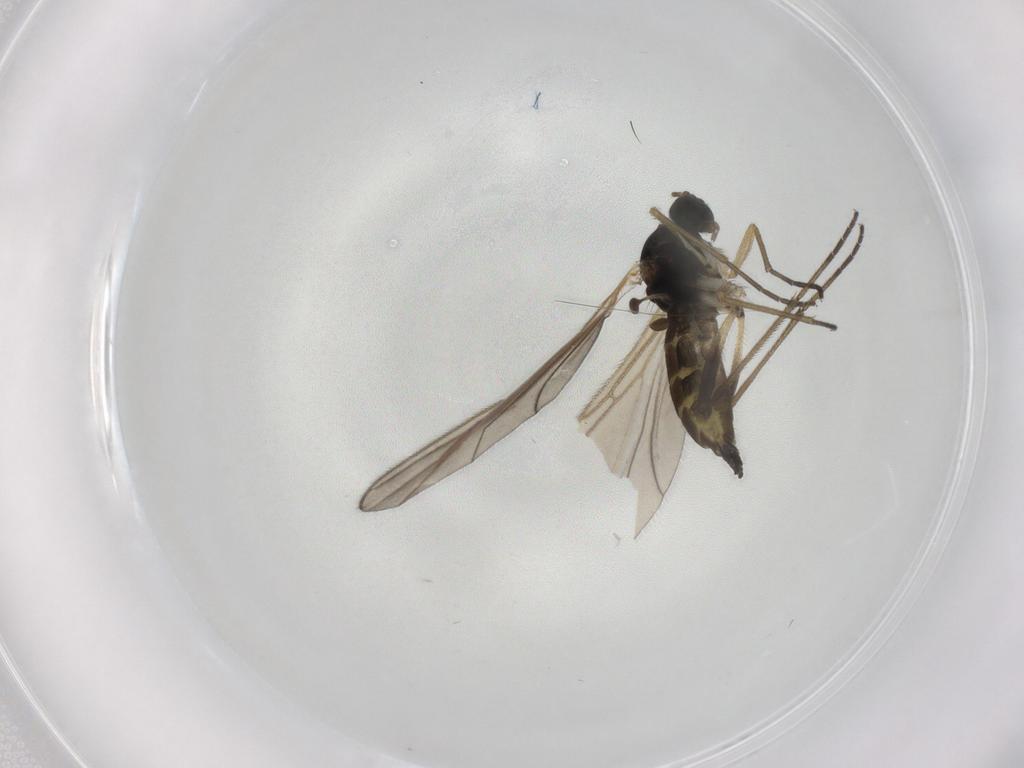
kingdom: Animalia
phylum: Arthropoda
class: Insecta
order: Diptera
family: Sciaridae
